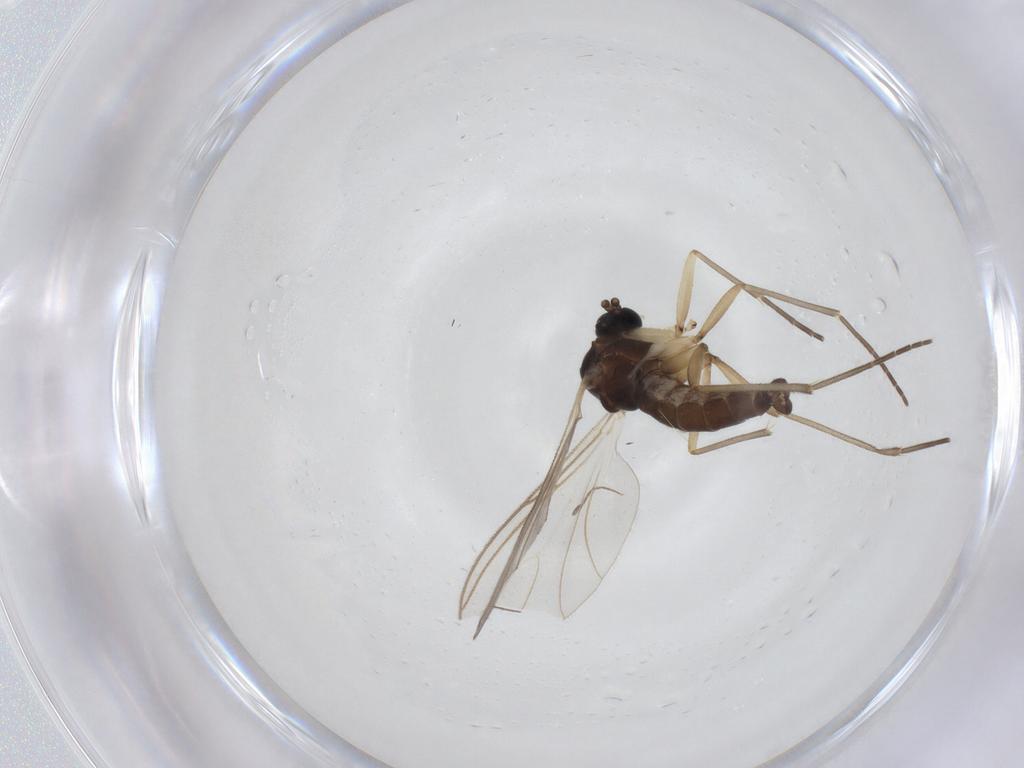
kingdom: Animalia
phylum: Arthropoda
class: Insecta
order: Diptera
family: Sciaridae
